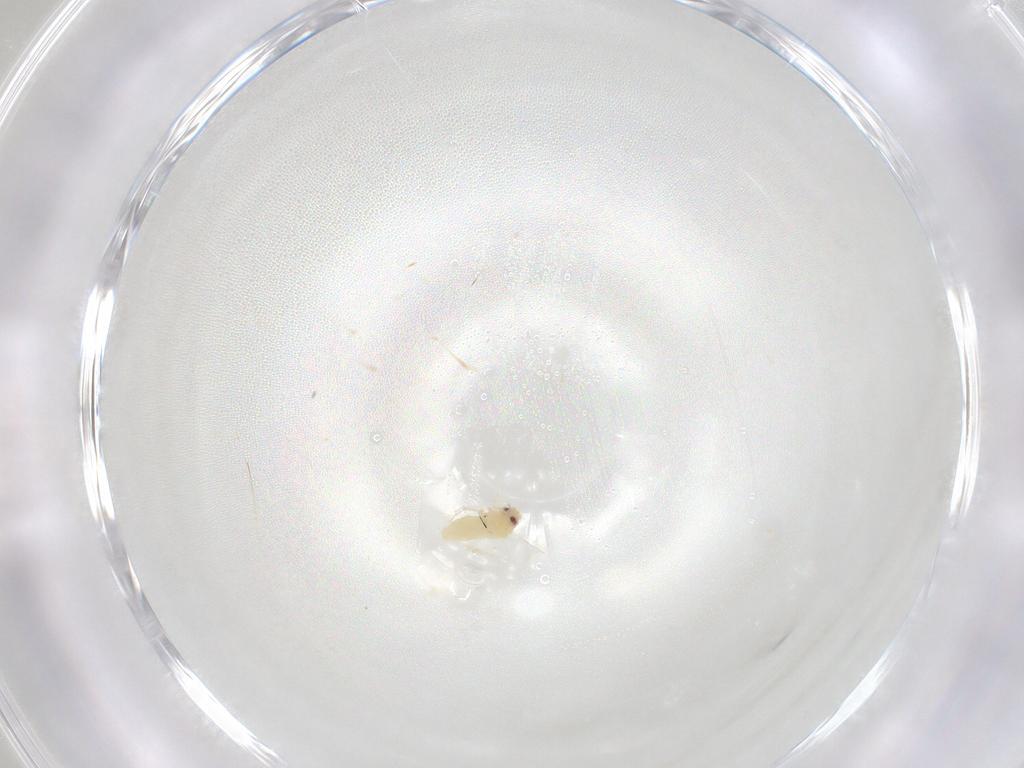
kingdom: Animalia
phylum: Arthropoda
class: Insecta
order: Hemiptera
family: Aleyrodidae
